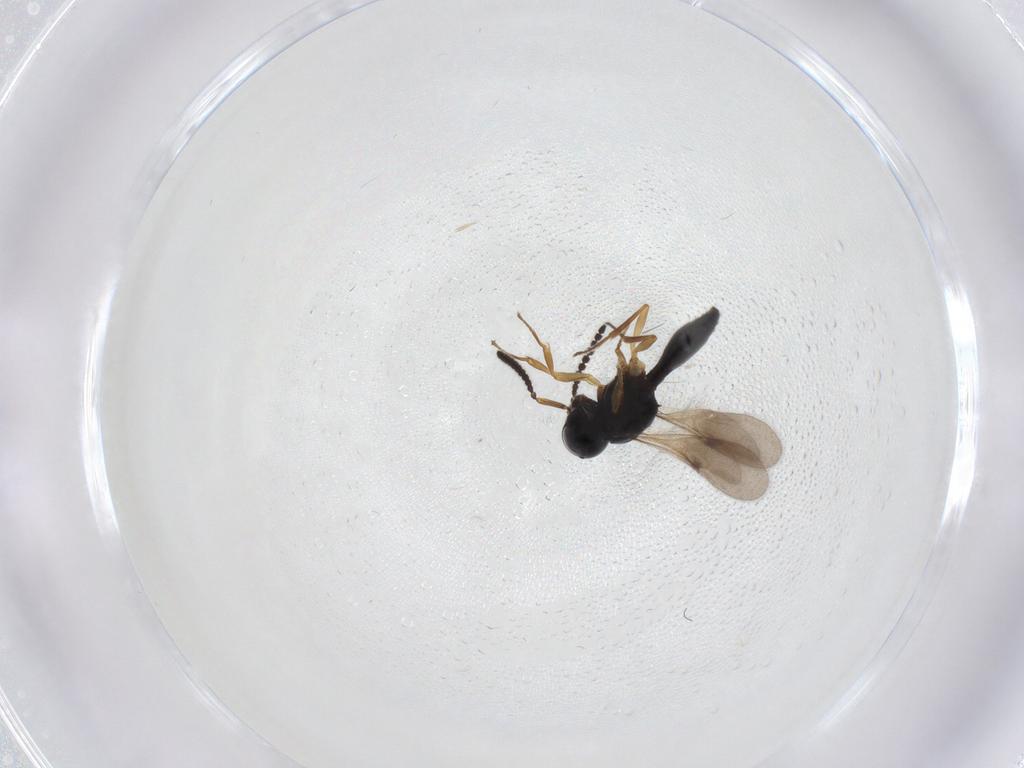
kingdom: Animalia
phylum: Arthropoda
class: Insecta
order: Hymenoptera
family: Scelionidae
